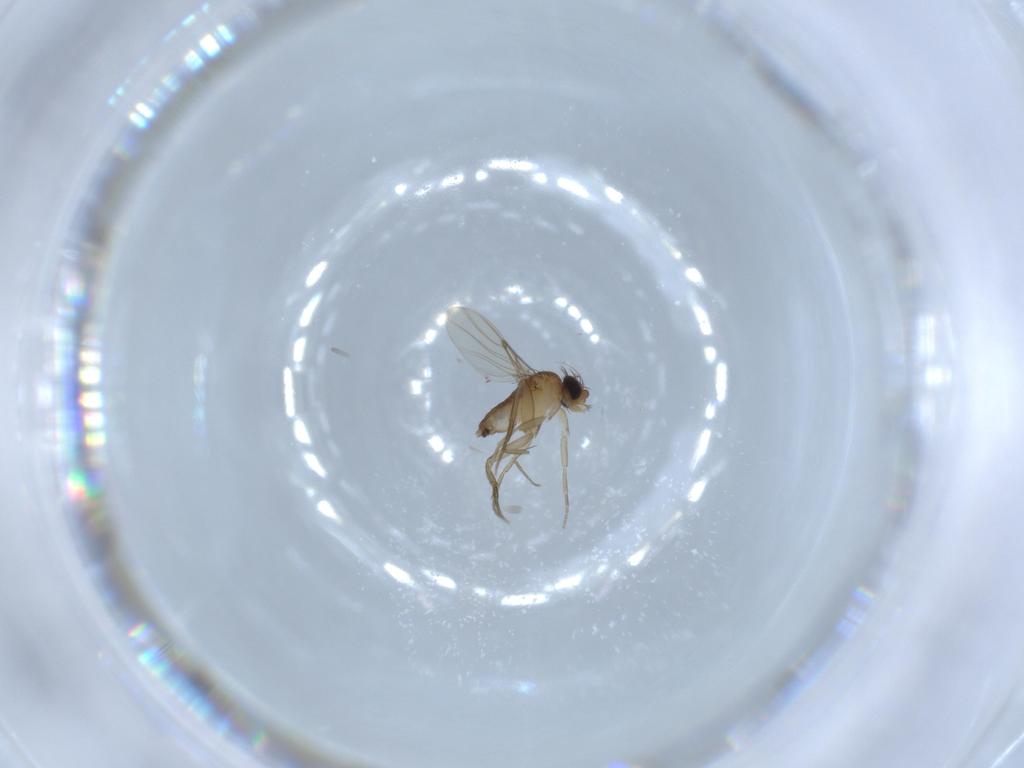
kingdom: Animalia
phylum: Arthropoda
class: Insecta
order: Diptera
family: Phoridae
